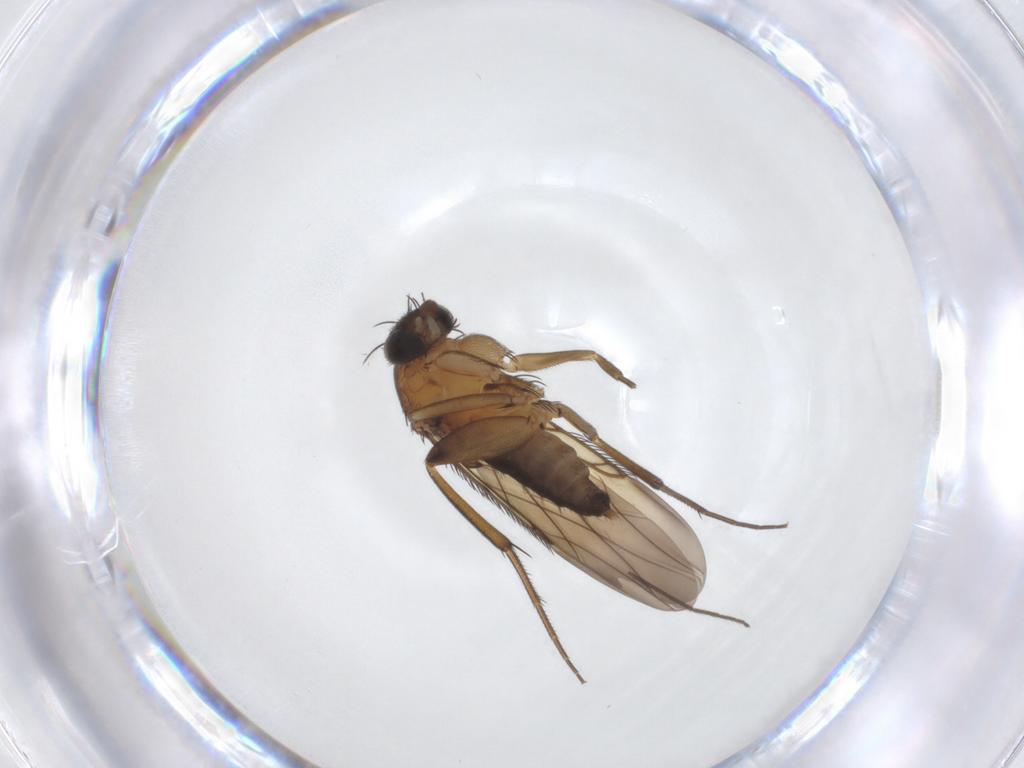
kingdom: Animalia
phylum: Arthropoda
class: Insecta
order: Diptera
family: Phoridae
